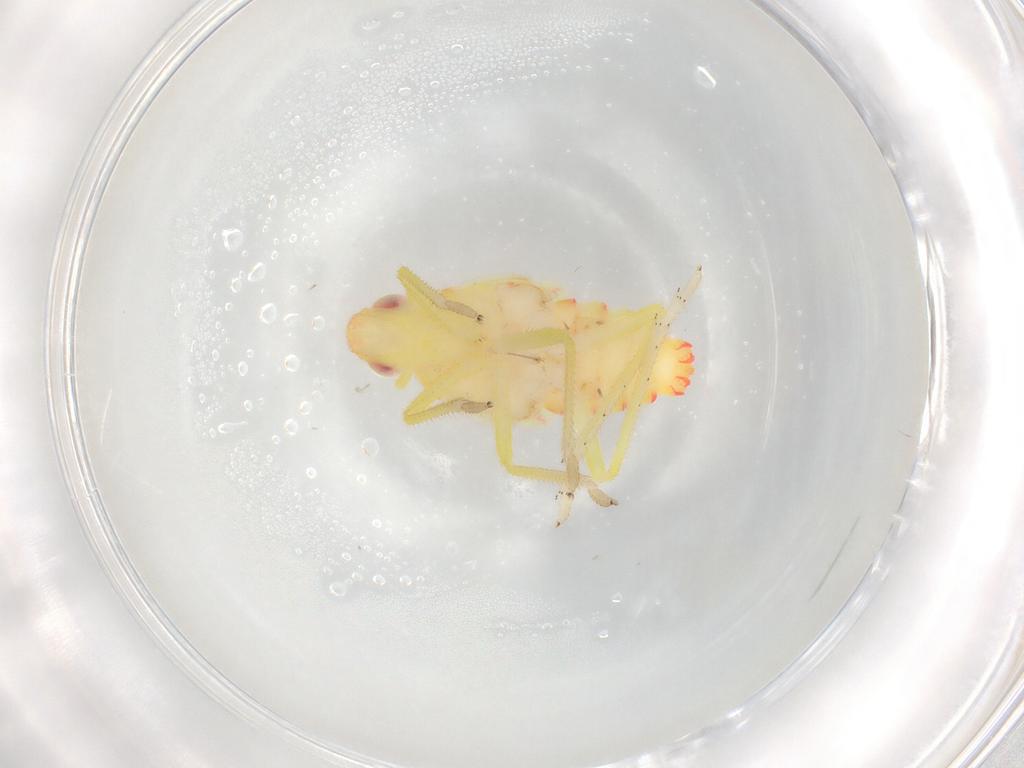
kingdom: Animalia
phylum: Arthropoda
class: Insecta
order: Hemiptera
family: Tropiduchidae
